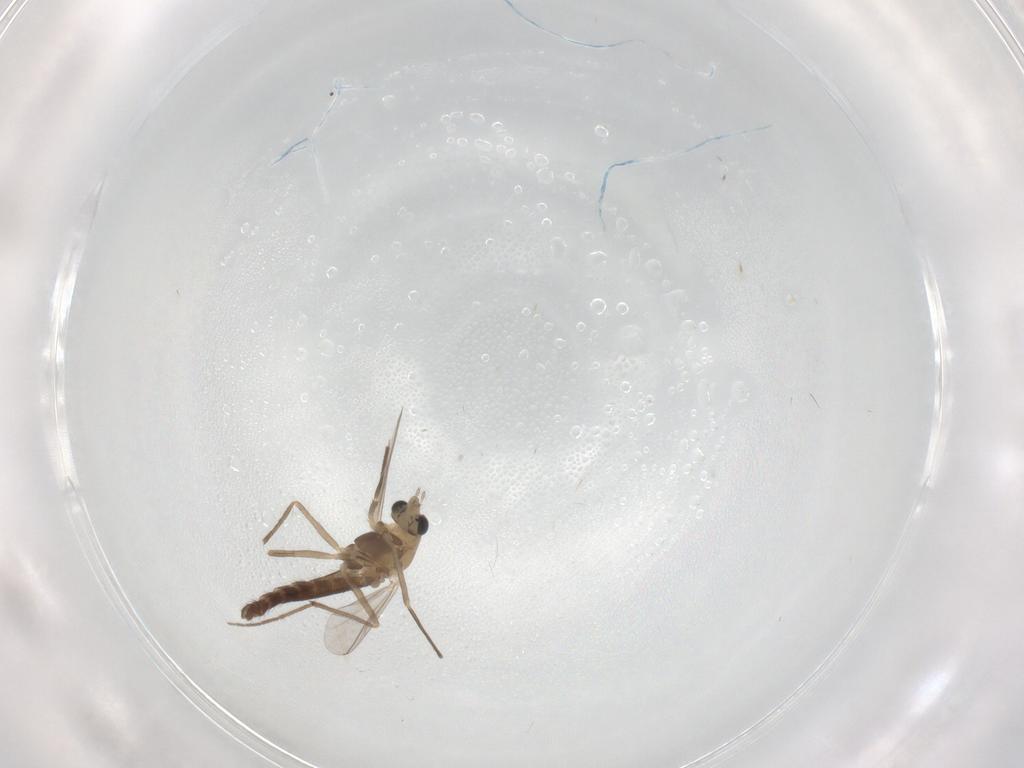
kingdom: Animalia
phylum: Arthropoda
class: Insecta
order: Diptera
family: Chironomidae
